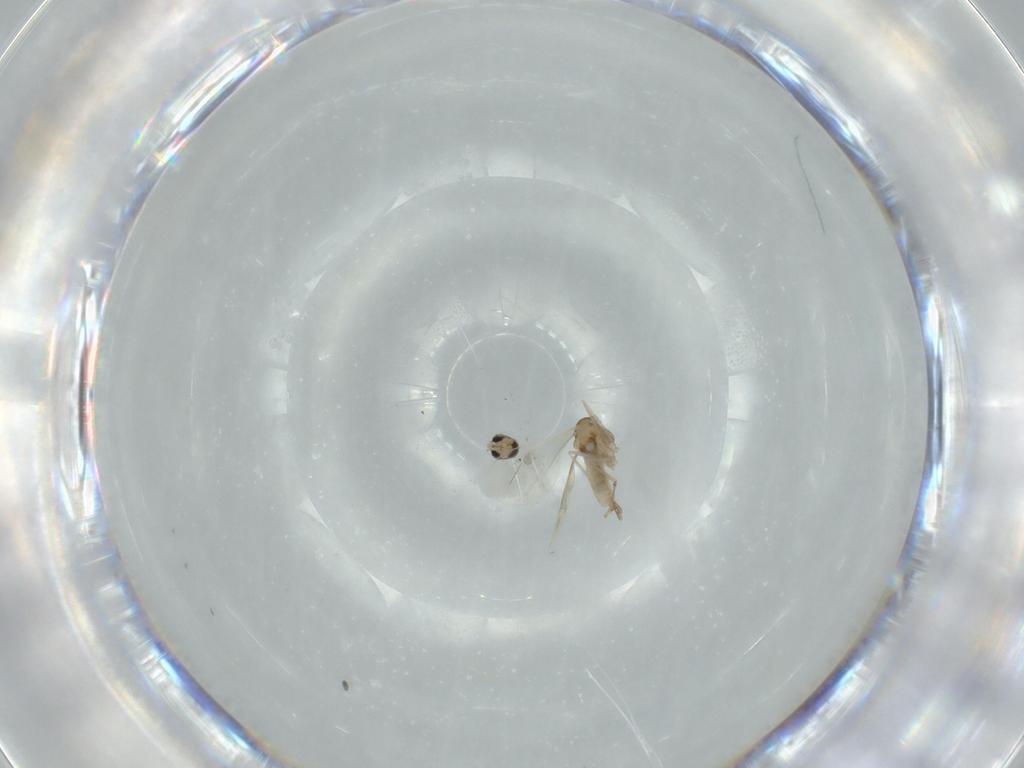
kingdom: Animalia
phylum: Arthropoda
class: Insecta
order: Diptera
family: Cecidomyiidae
